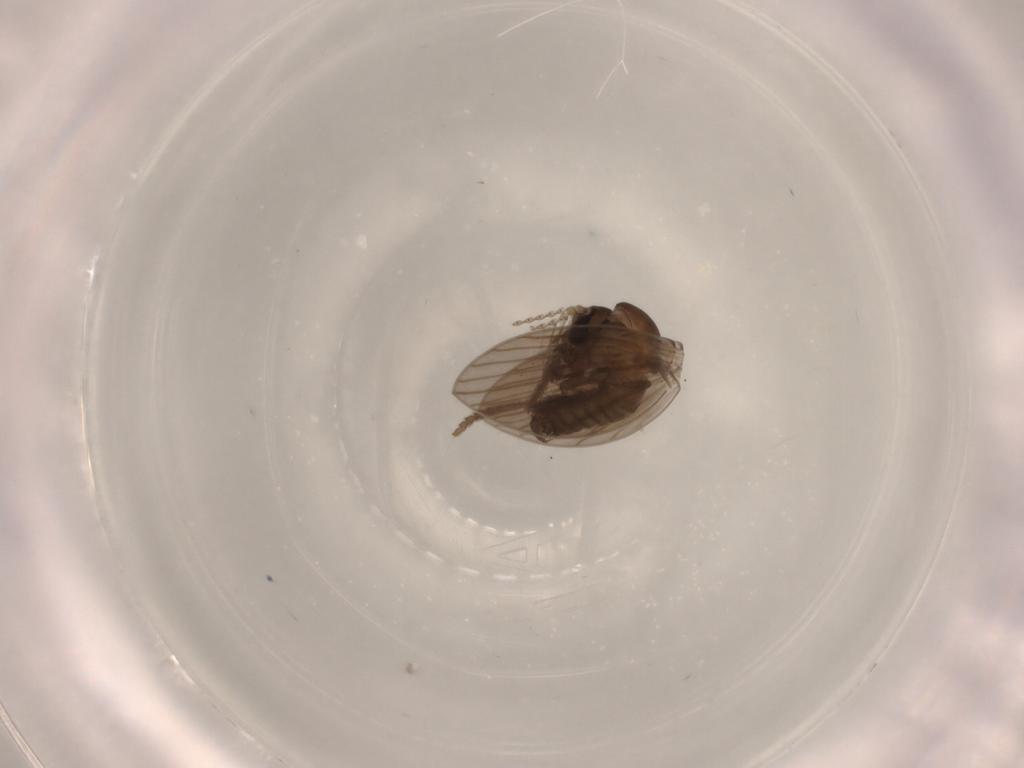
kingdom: Animalia
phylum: Arthropoda
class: Insecta
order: Diptera
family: Psychodidae
